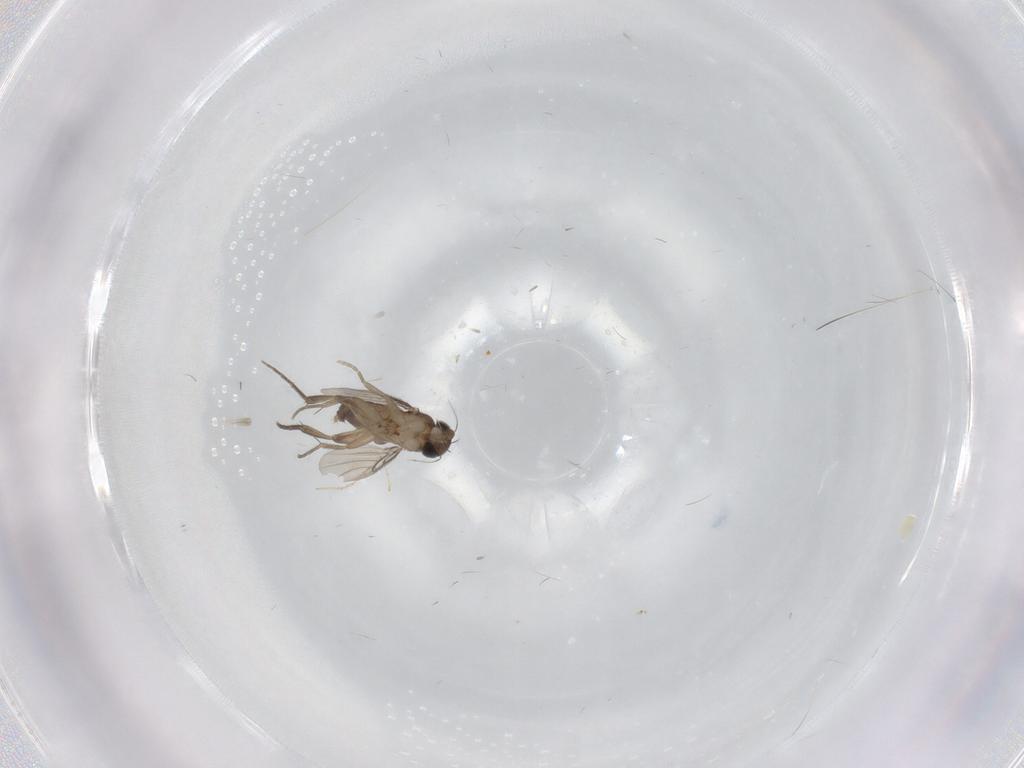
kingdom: Animalia
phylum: Arthropoda
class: Insecta
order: Diptera
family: Phoridae
